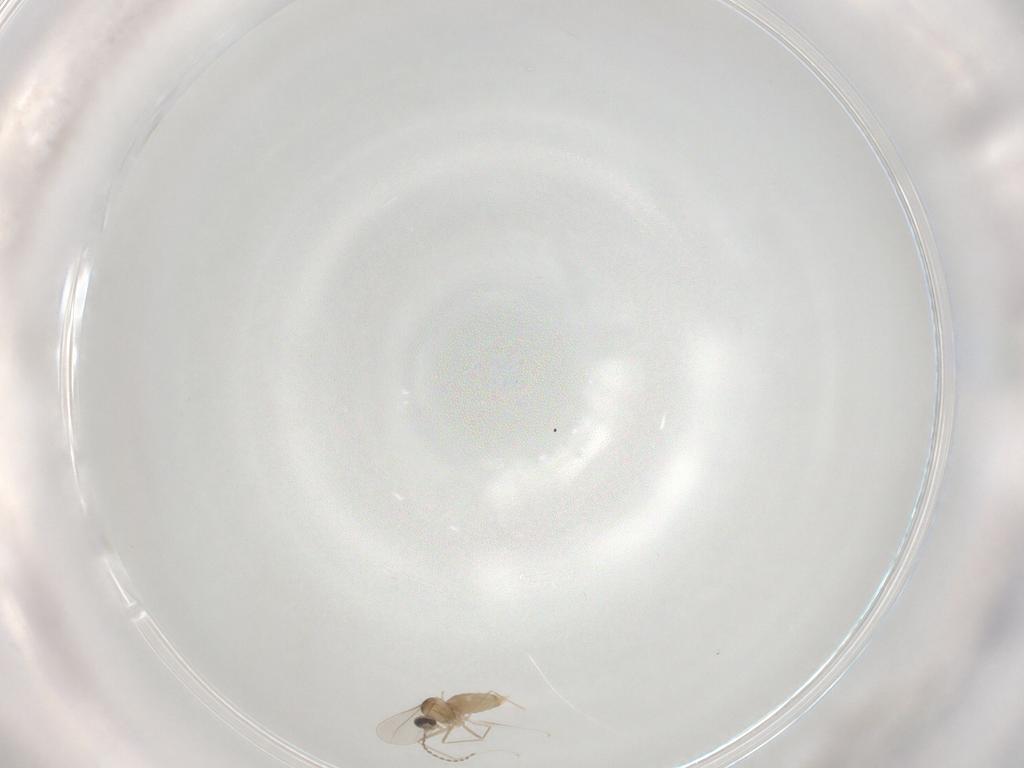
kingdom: Animalia
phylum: Arthropoda
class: Insecta
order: Diptera
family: Cecidomyiidae
